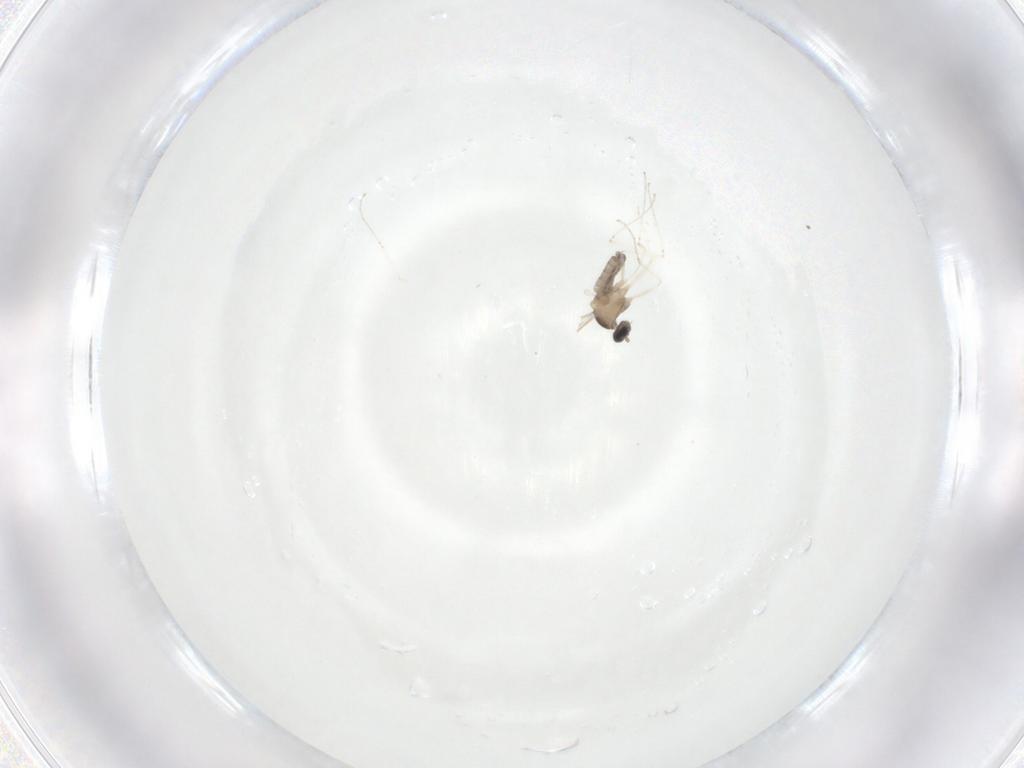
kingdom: Animalia
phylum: Arthropoda
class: Insecta
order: Diptera
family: Cecidomyiidae
